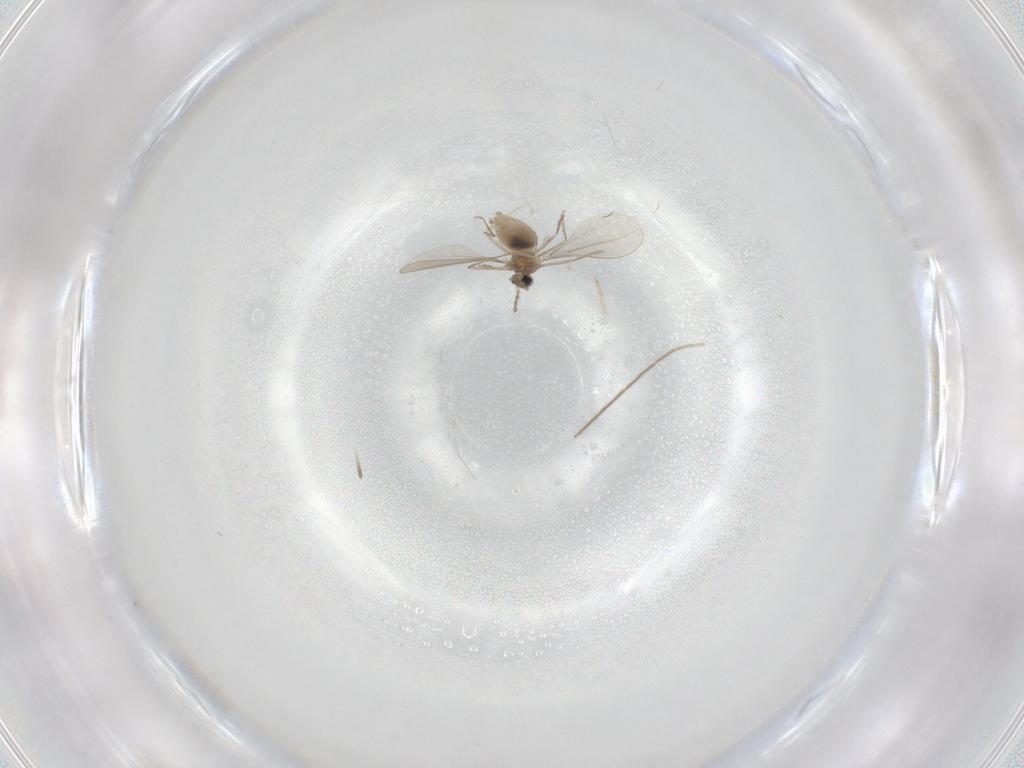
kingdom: Animalia
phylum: Arthropoda
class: Insecta
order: Diptera
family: Cecidomyiidae
